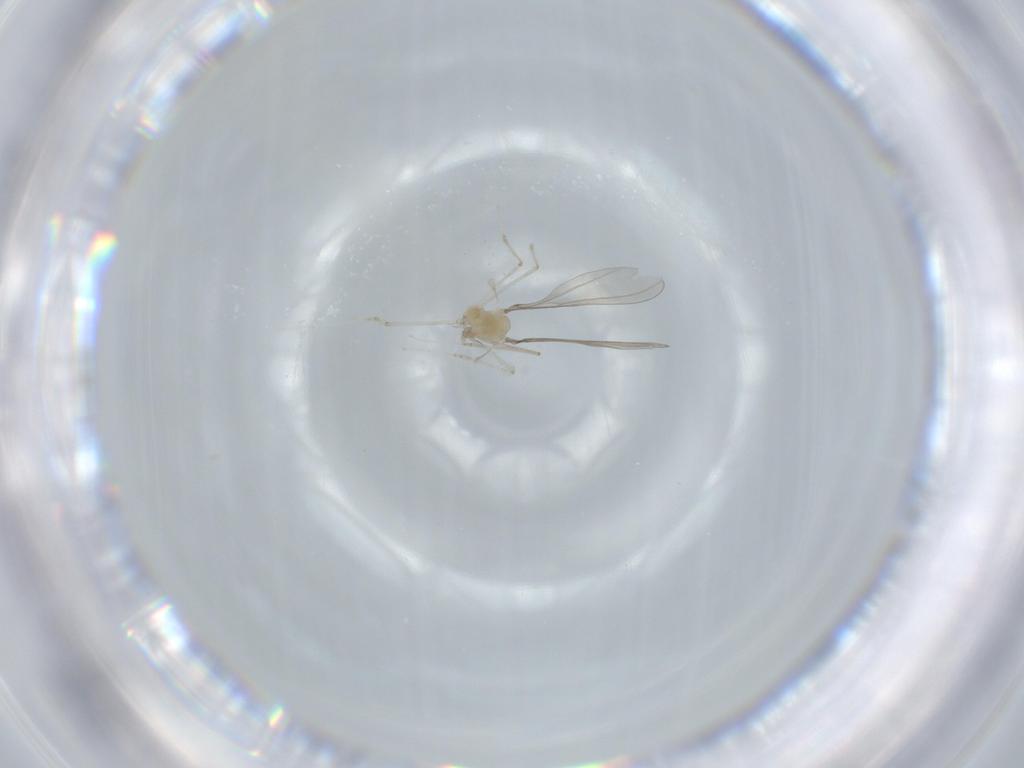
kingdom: Animalia
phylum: Arthropoda
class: Insecta
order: Diptera
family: Cecidomyiidae
